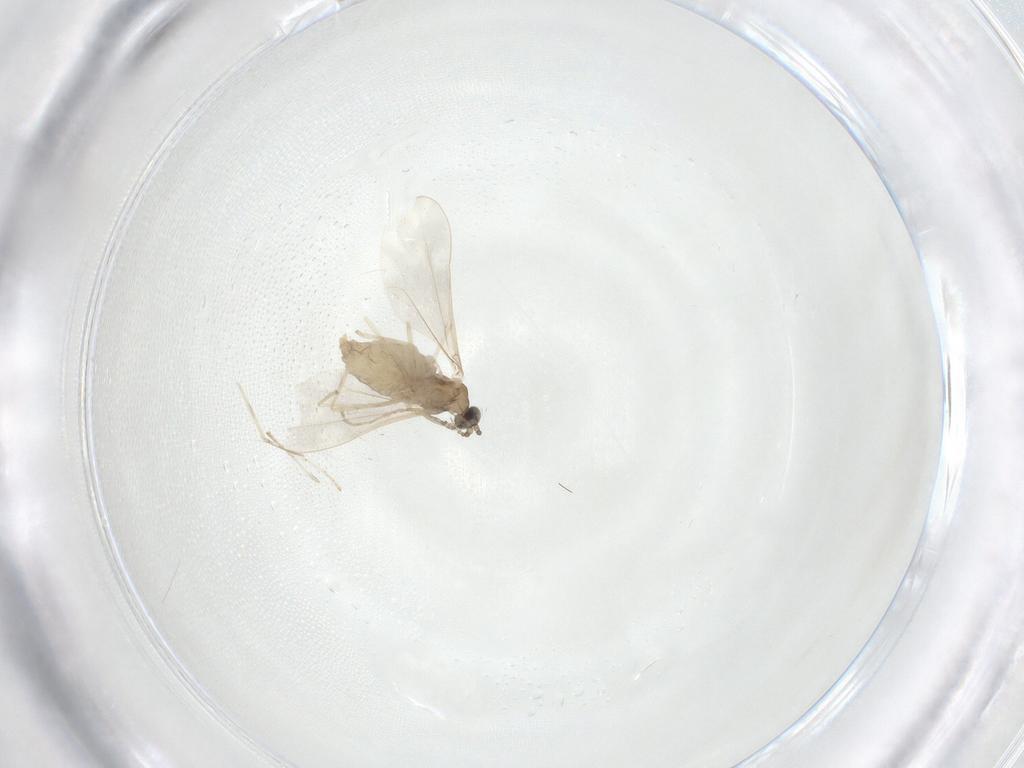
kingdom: Animalia
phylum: Arthropoda
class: Insecta
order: Diptera
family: Cecidomyiidae
